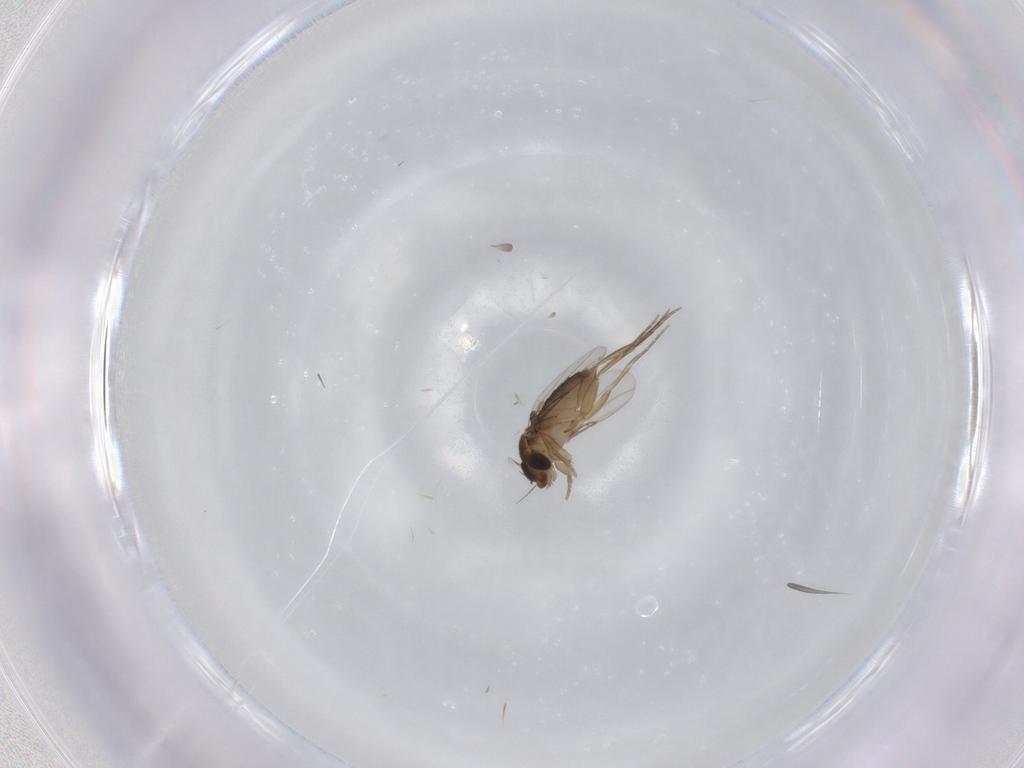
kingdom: Animalia
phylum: Arthropoda
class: Insecta
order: Diptera
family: Phoridae
